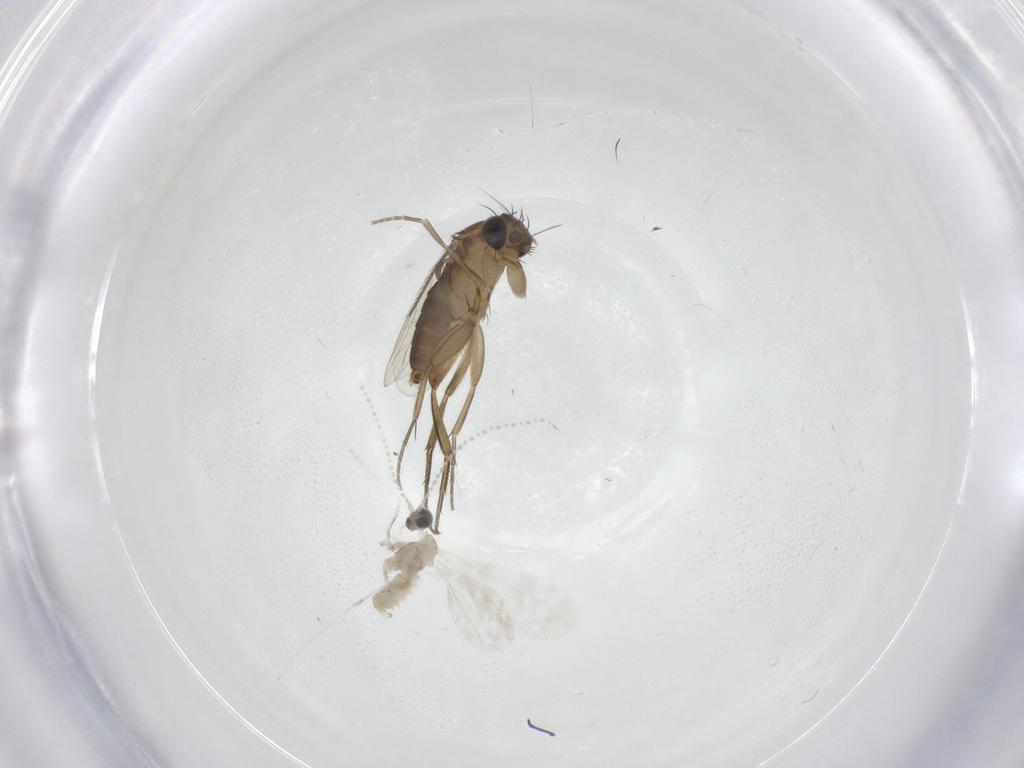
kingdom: Animalia
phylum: Arthropoda
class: Insecta
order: Diptera
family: Phoridae
